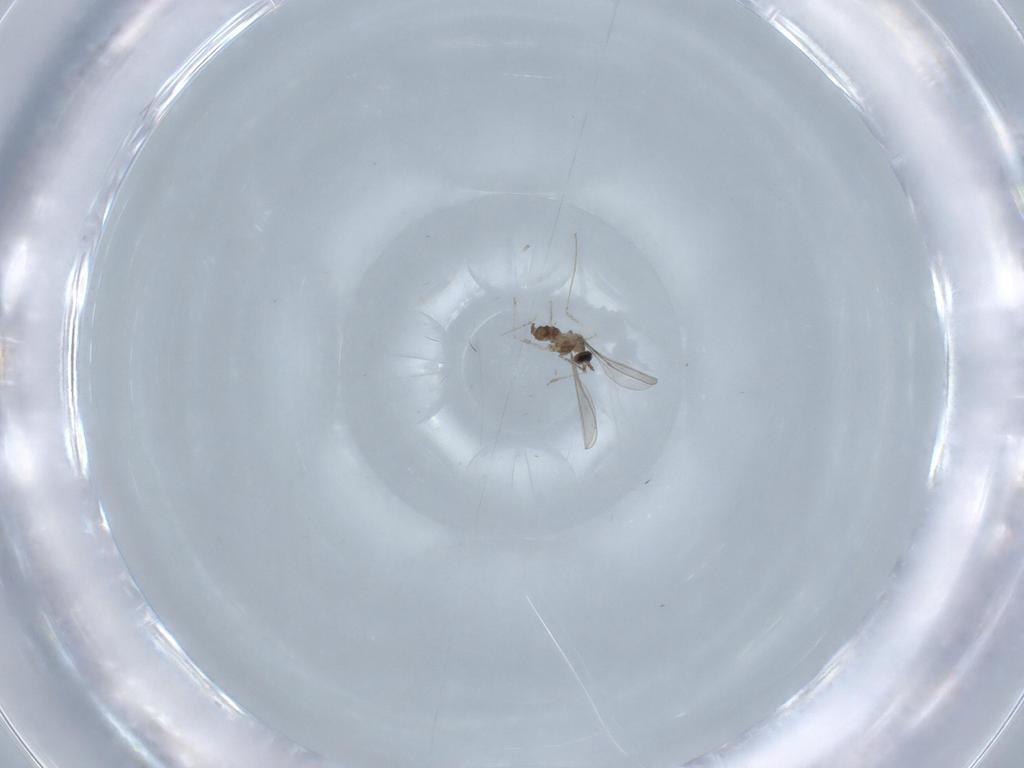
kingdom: Animalia
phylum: Arthropoda
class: Insecta
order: Diptera
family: Cecidomyiidae
